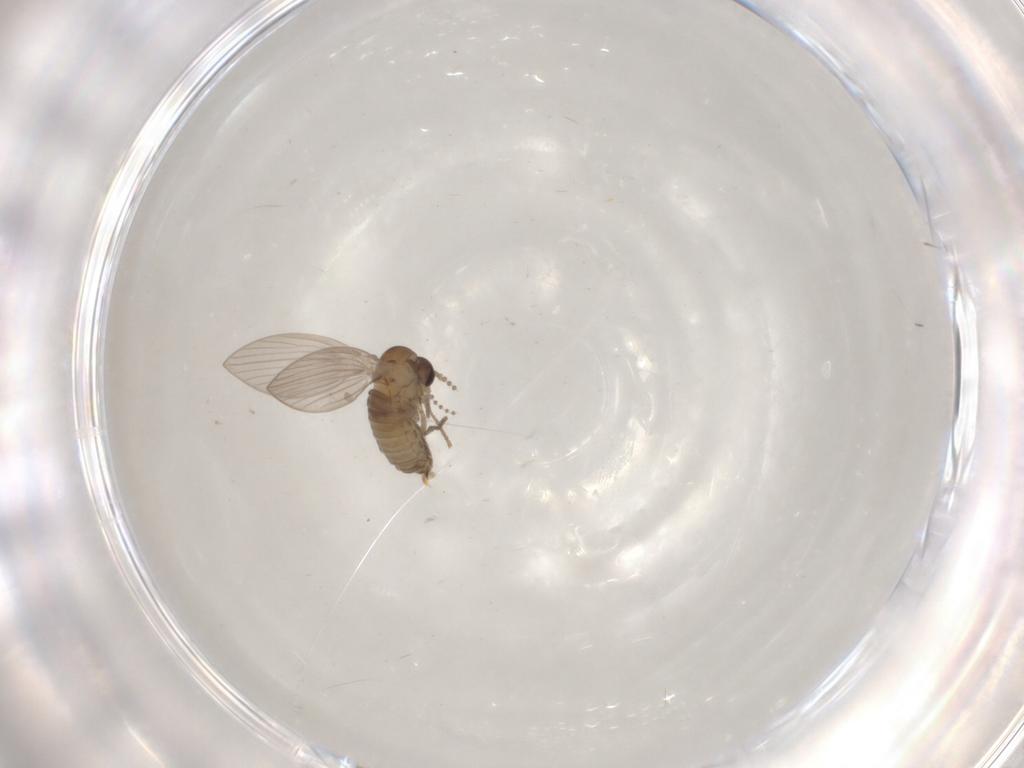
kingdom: Animalia
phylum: Arthropoda
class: Insecta
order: Diptera
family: Psychodidae
